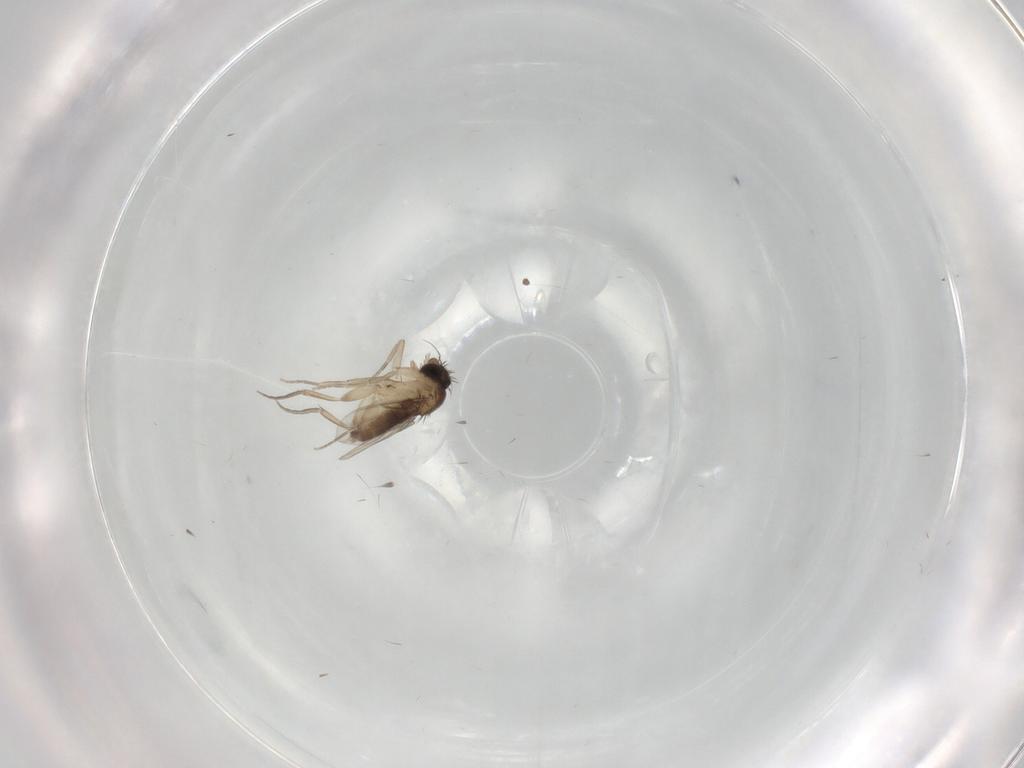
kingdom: Animalia
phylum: Arthropoda
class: Insecta
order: Diptera
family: Phoridae
